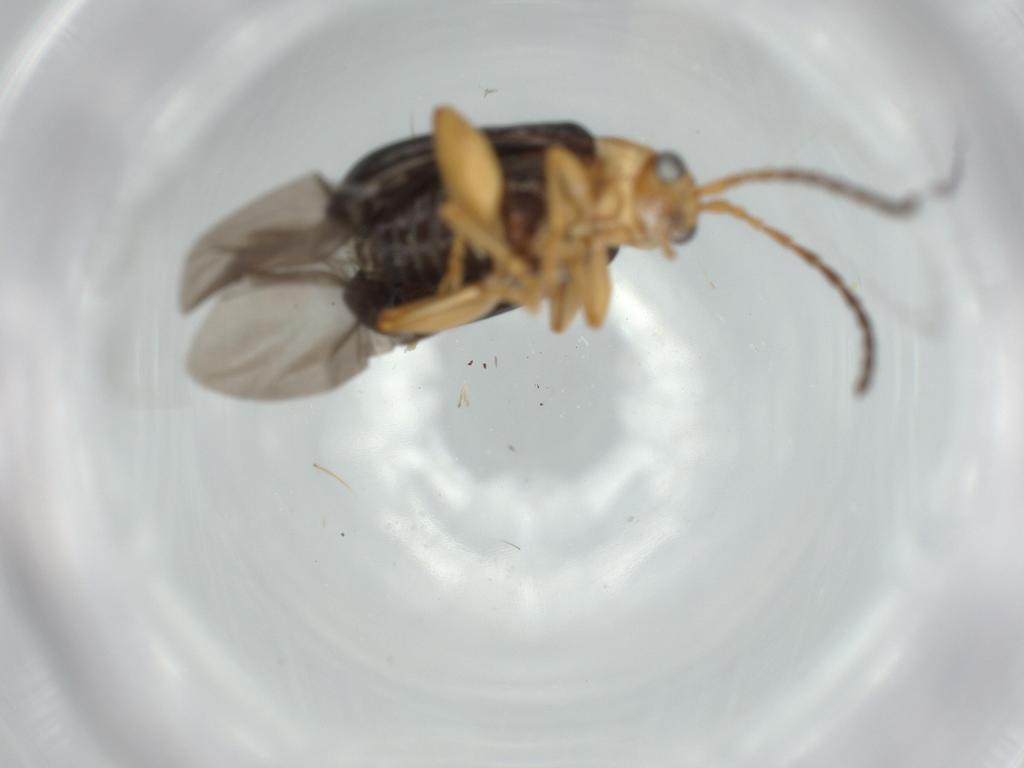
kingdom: Animalia
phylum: Arthropoda
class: Insecta
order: Coleoptera
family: Chrysomelidae
